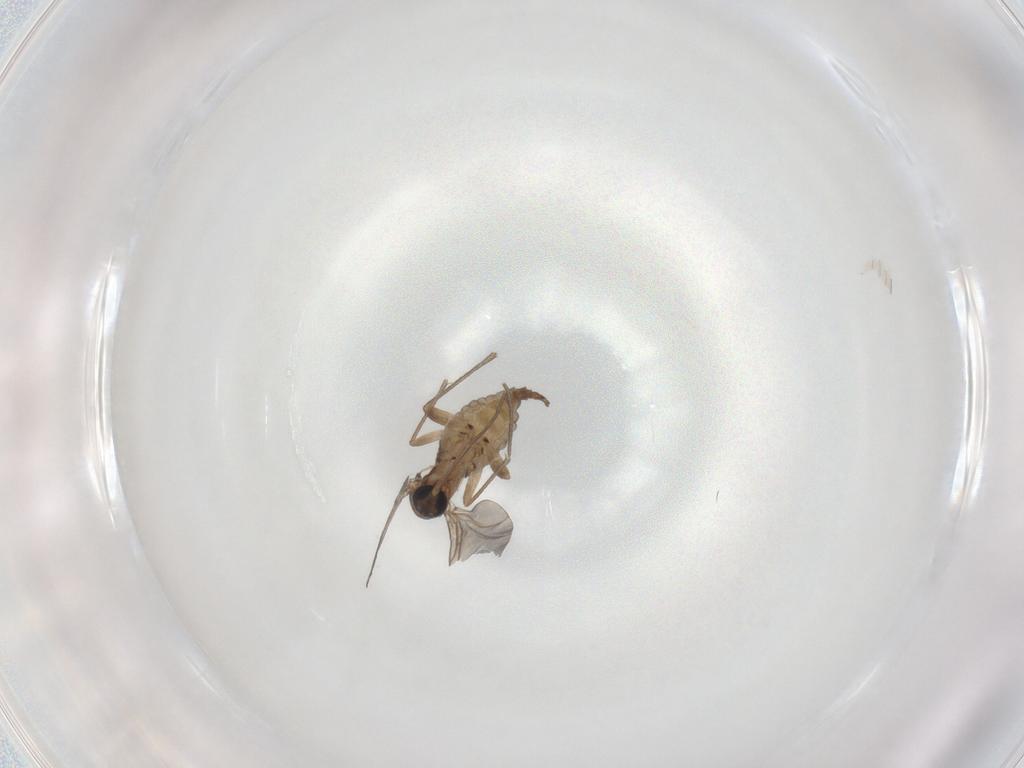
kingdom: Animalia
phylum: Arthropoda
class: Insecta
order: Diptera
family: Sciaridae
